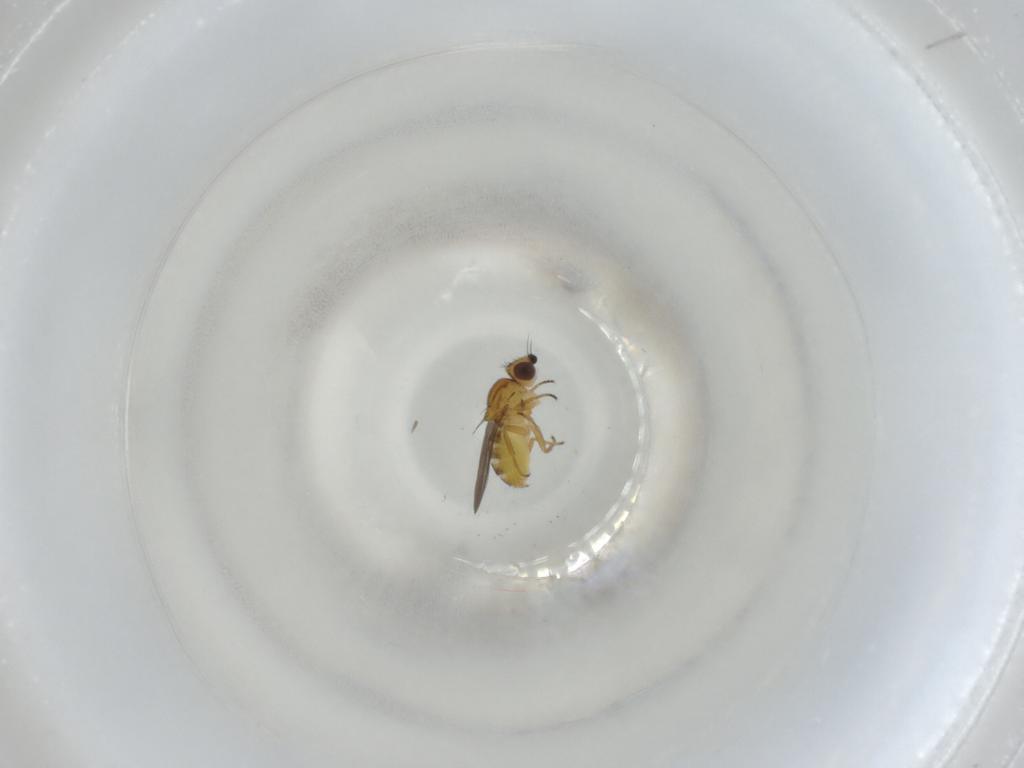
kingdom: Animalia
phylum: Arthropoda
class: Insecta
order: Diptera
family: Chloropidae
